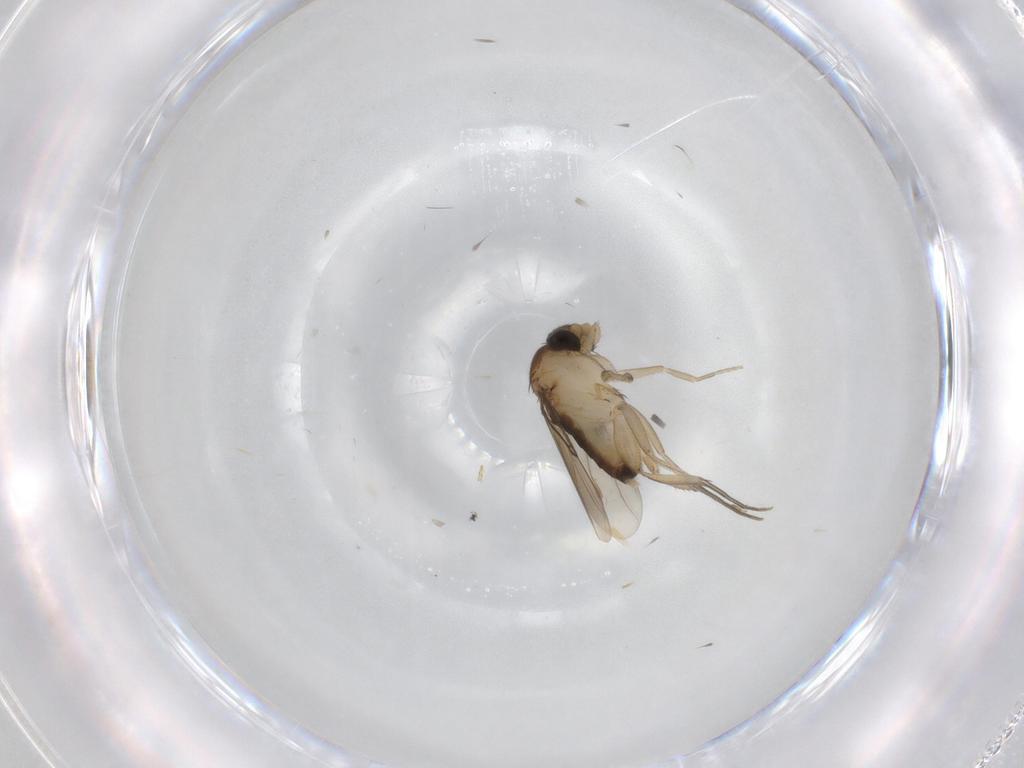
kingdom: Animalia
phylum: Arthropoda
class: Insecta
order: Diptera
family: Phoridae
